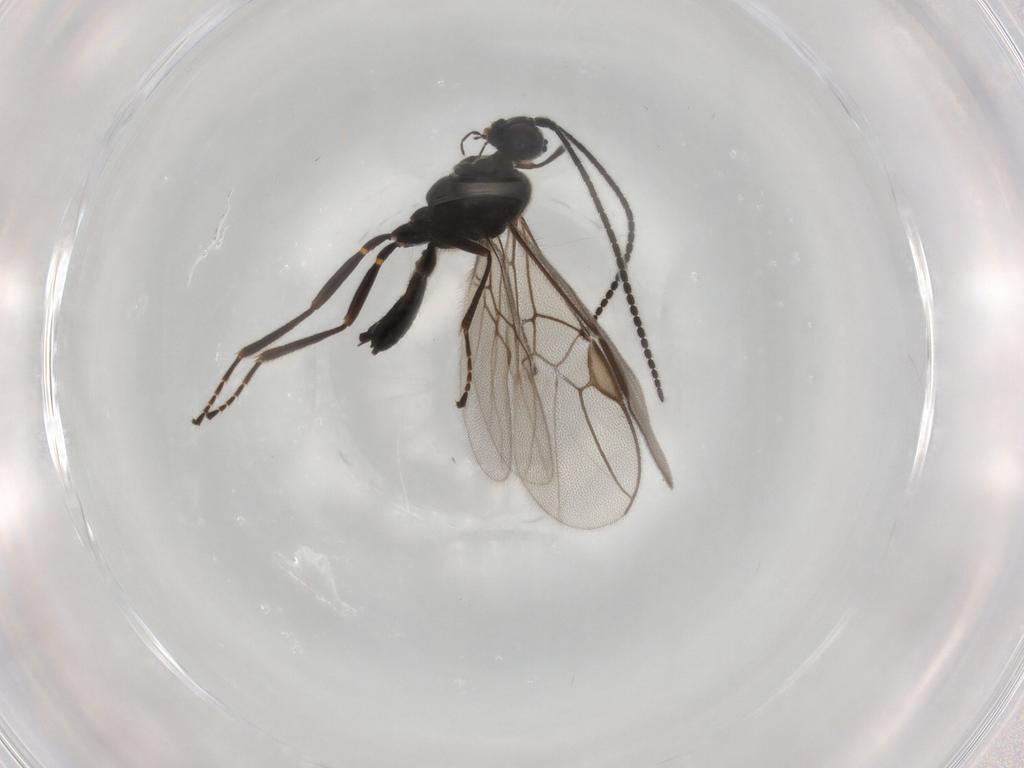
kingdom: Animalia
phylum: Arthropoda
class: Insecta
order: Hymenoptera
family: Braconidae
